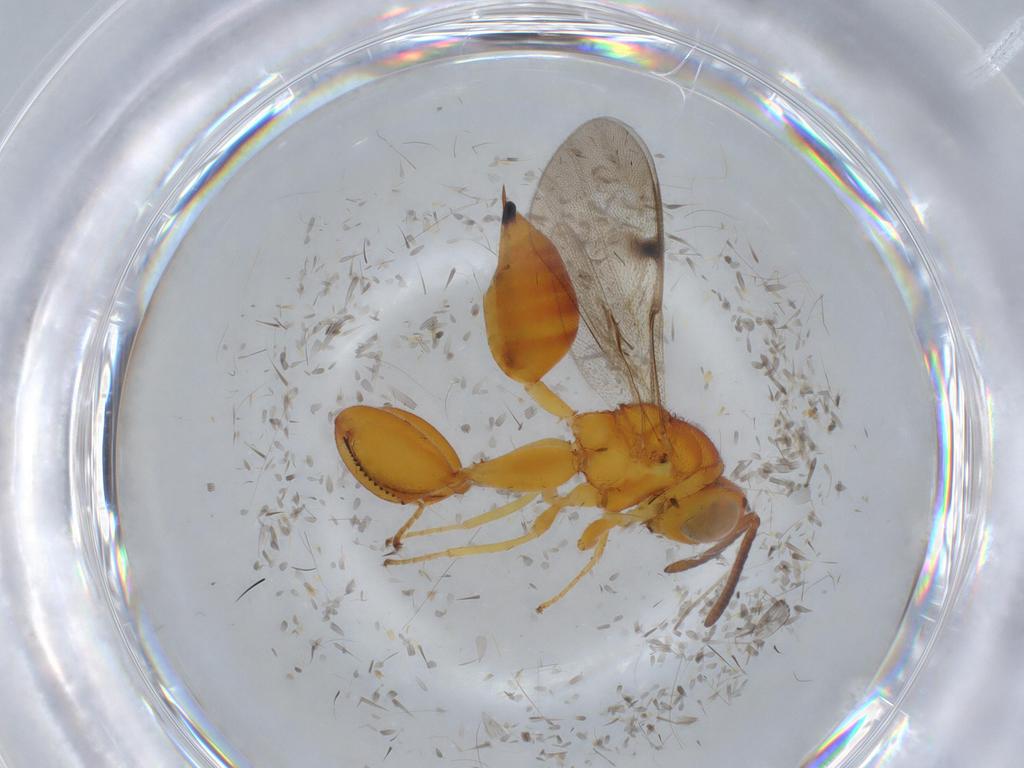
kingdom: Animalia
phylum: Arthropoda
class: Insecta
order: Hymenoptera
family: Chalcididae
